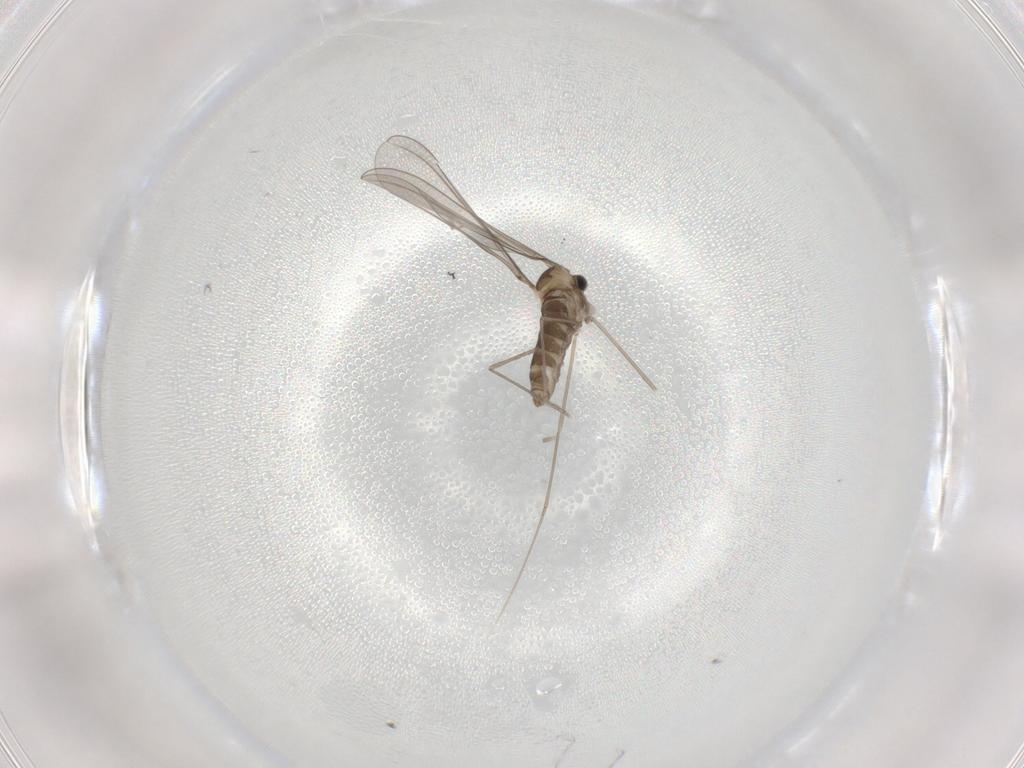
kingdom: Animalia
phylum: Arthropoda
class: Insecta
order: Diptera
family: Cecidomyiidae
